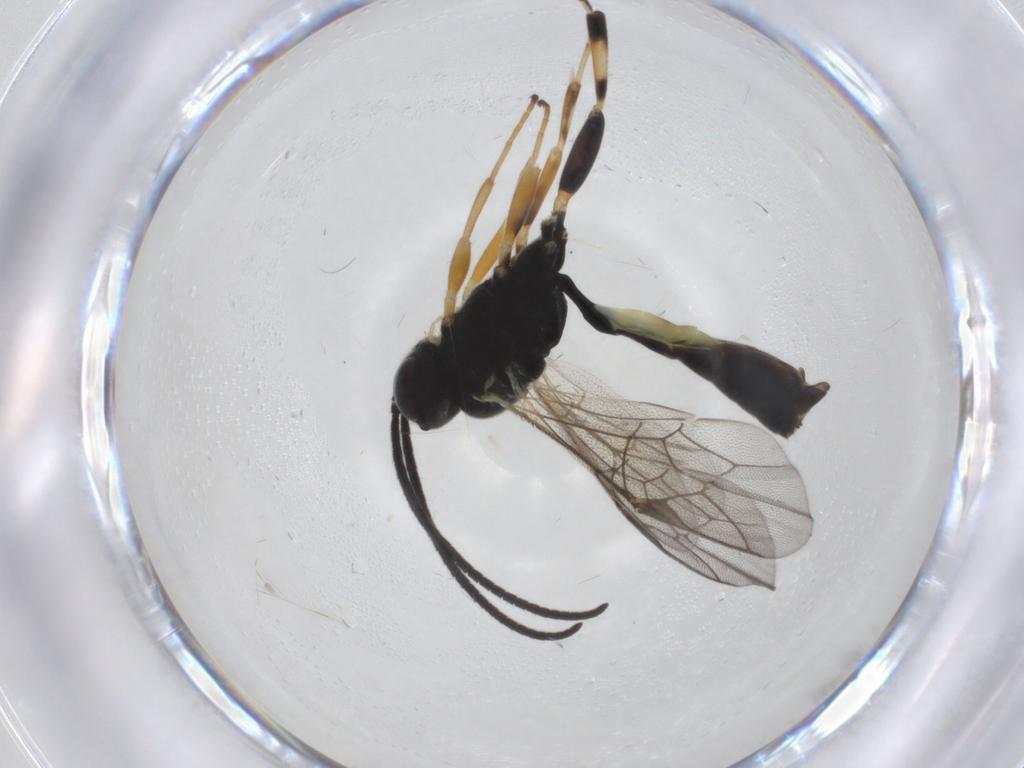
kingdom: Animalia
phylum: Arthropoda
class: Insecta
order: Hymenoptera
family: Ichneumonidae
